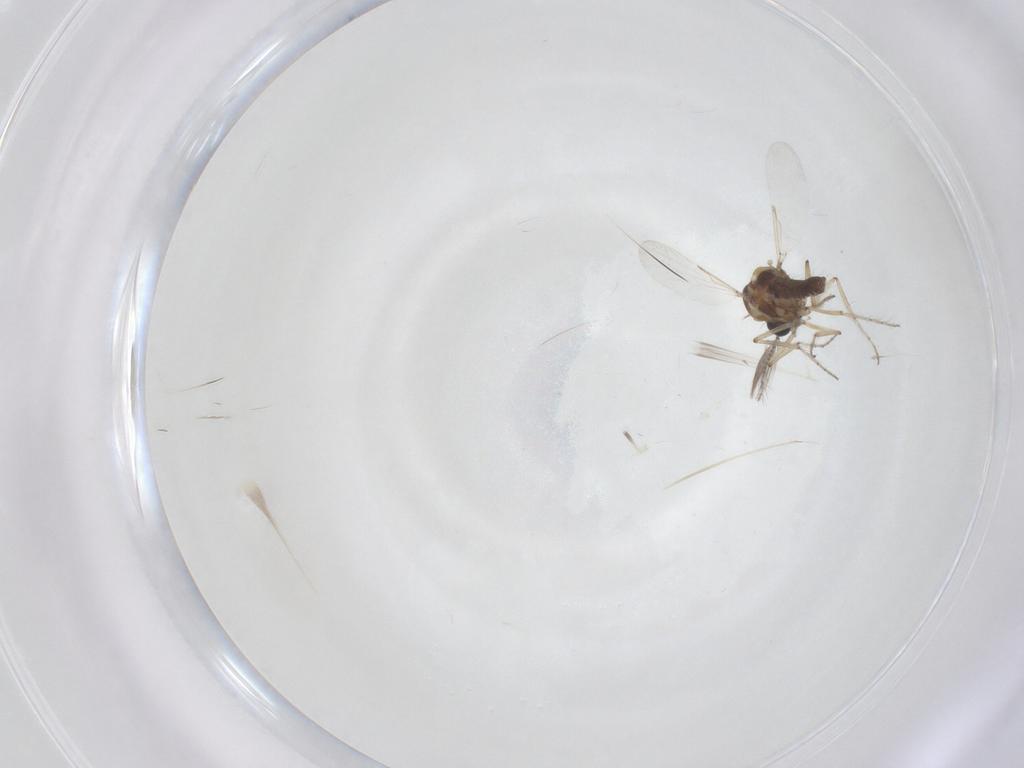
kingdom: Animalia
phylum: Arthropoda
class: Insecta
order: Diptera
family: Ceratopogonidae
